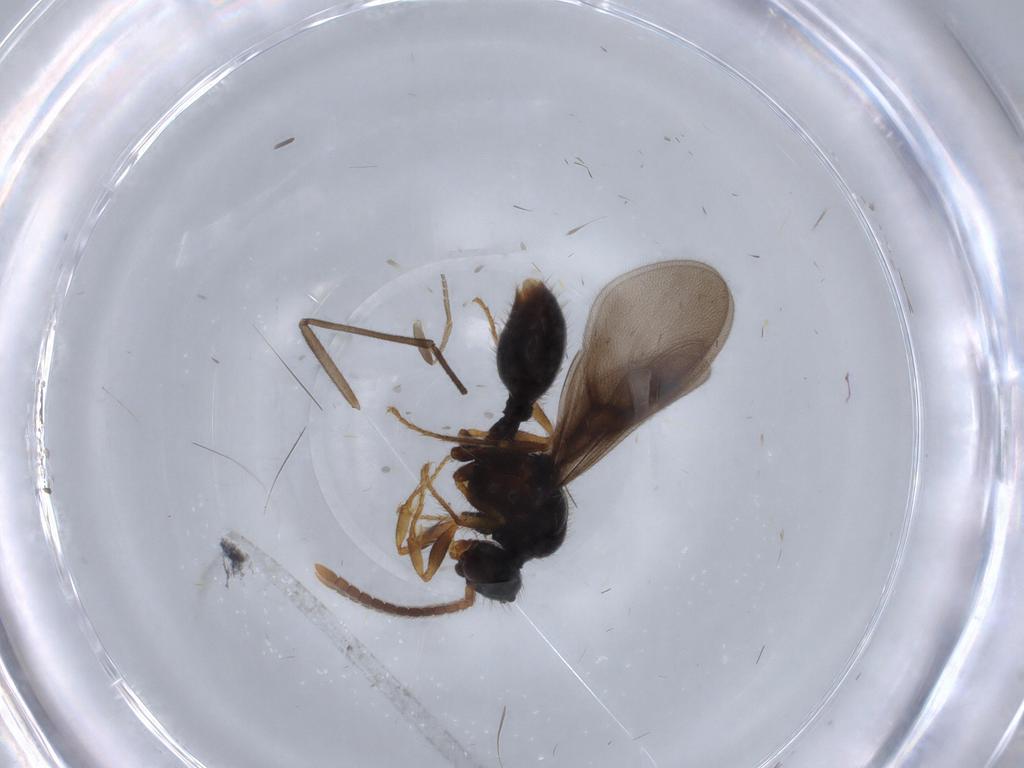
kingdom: Animalia
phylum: Arthropoda
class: Insecta
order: Hymenoptera
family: Formicidae
